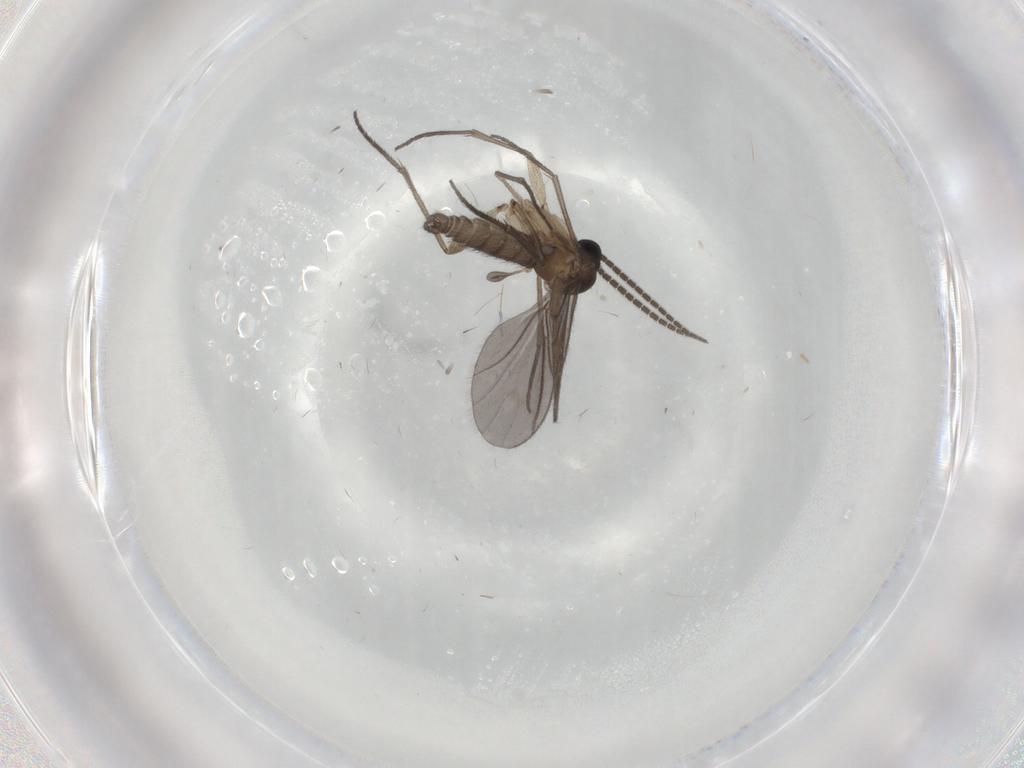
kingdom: Animalia
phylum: Arthropoda
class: Insecta
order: Diptera
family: Sciaridae
